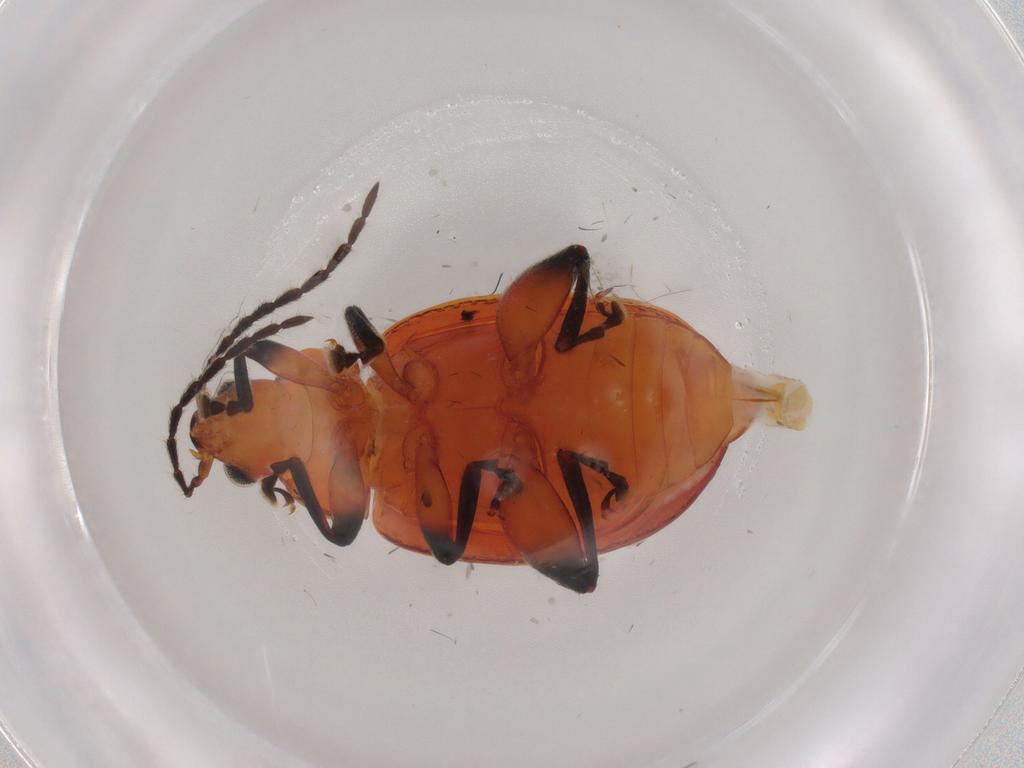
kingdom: Animalia
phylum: Arthropoda
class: Insecta
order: Coleoptera
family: Chrysomelidae
